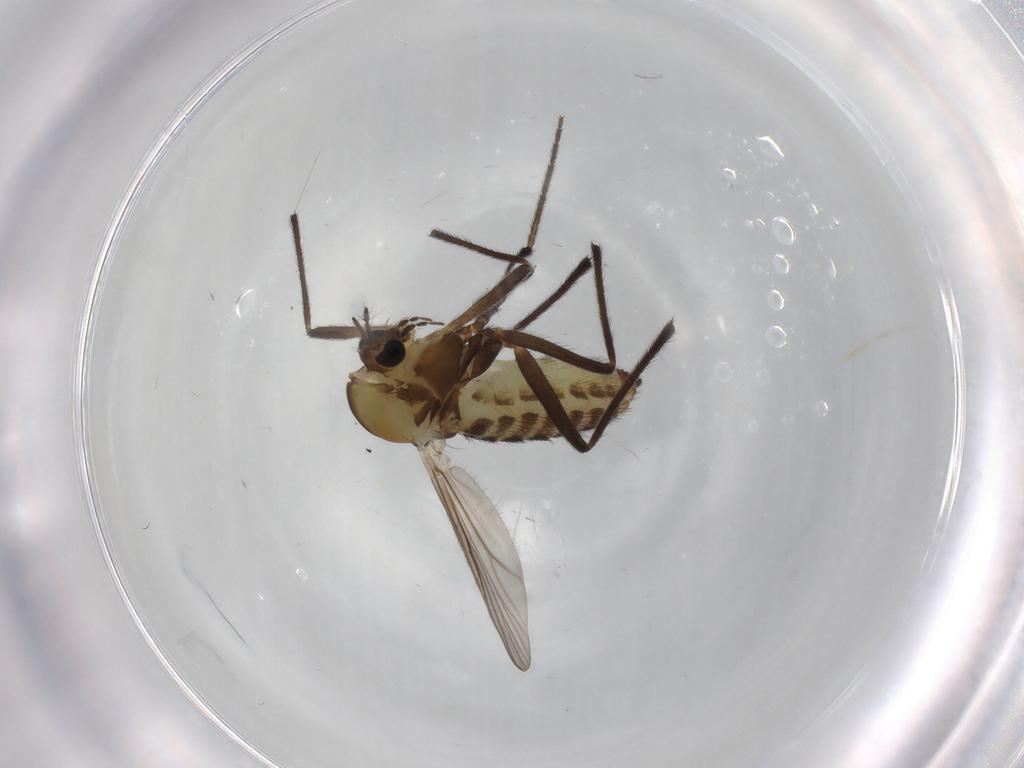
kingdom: Animalia
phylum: Arthropoda
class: Insecta
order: Diptera
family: Chironomidae
